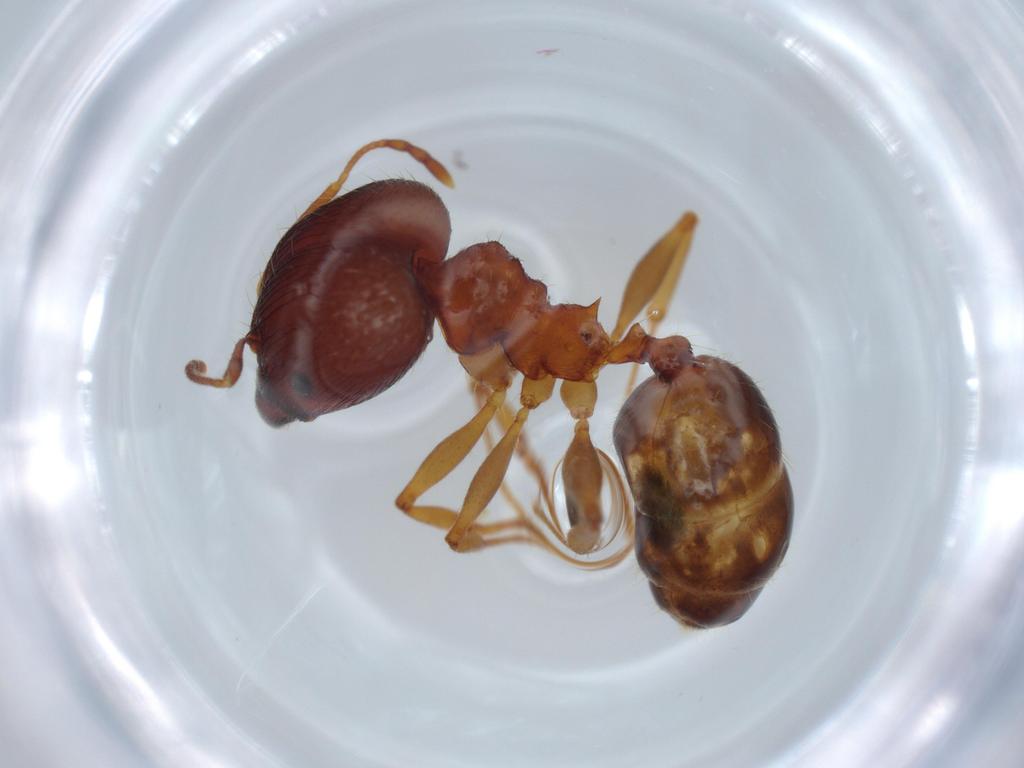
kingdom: Animalia
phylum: Arthropoda
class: Insecta
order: Hymenoptera
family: Formicidae
